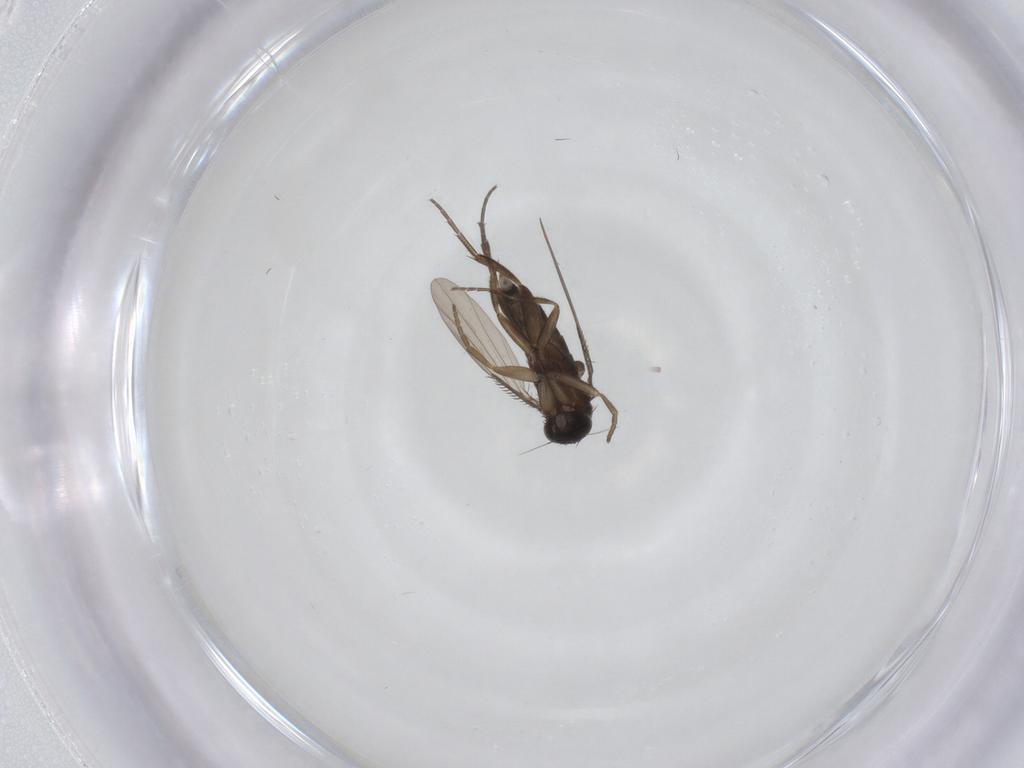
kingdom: Animalia
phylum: Arthropoda
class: Insecta
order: Diptera
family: Phoridae
